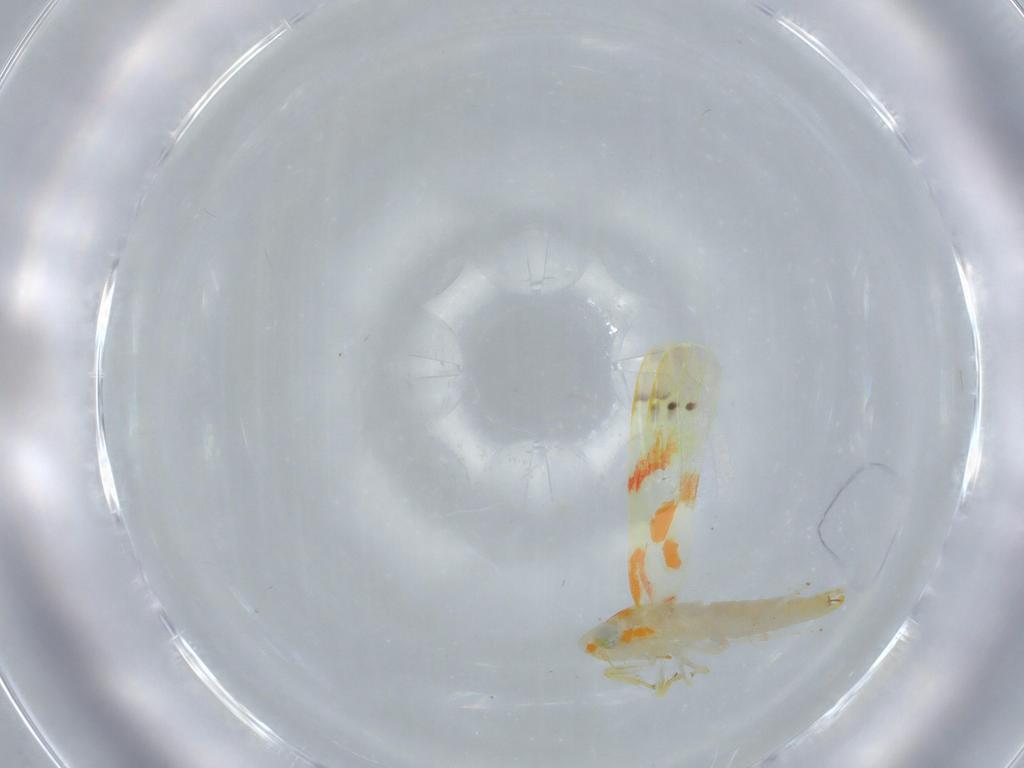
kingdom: Animalia
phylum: Arthropoda
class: Insecta
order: Hemiptera
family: Cicadellidae
